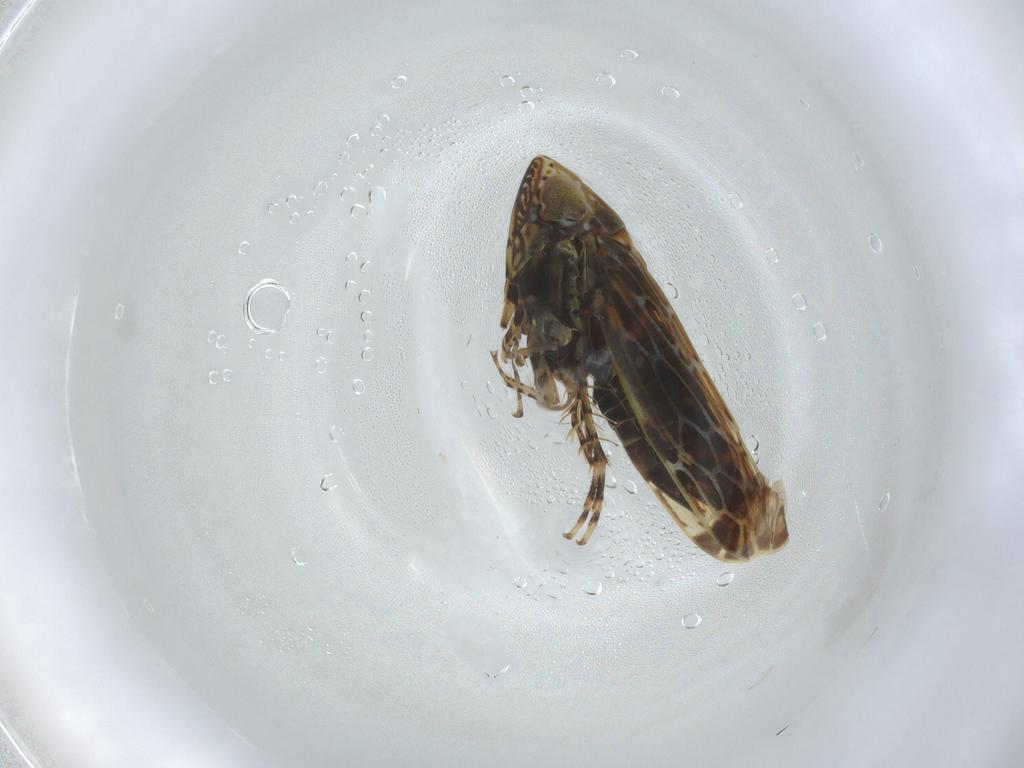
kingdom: Animalia
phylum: Arthropoda
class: Insecta
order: Hemiptera
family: Cicadellidae
